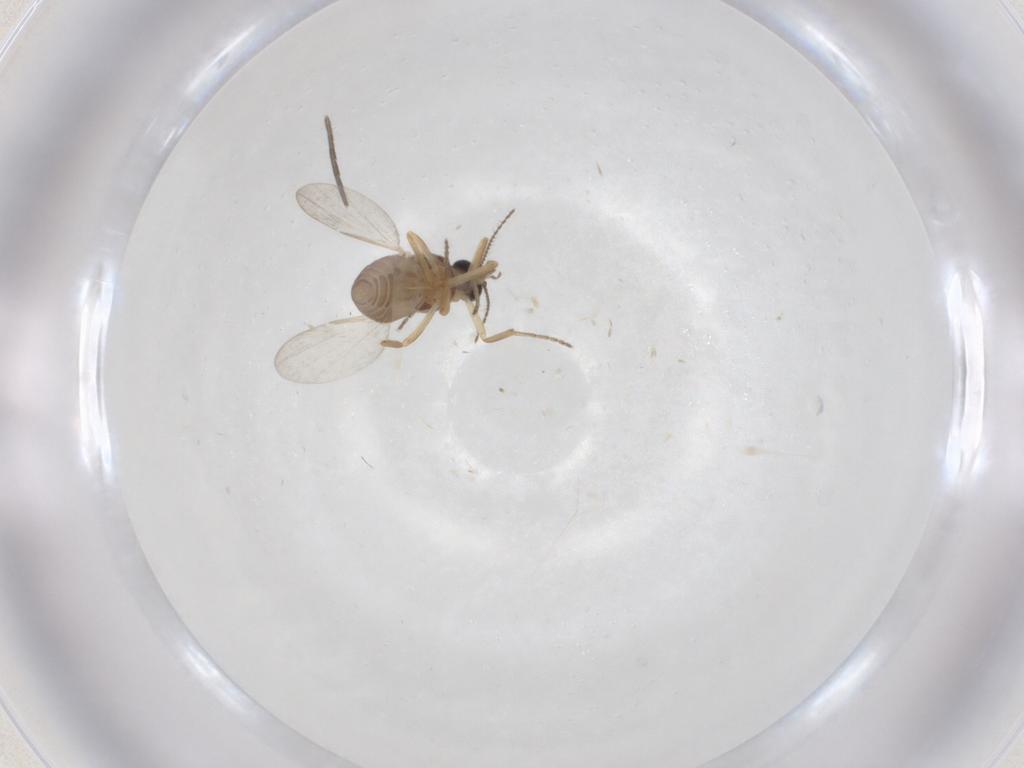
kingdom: Animalia
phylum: Arthropoda
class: Insecta
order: Diptera
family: Ceratopogonidae
